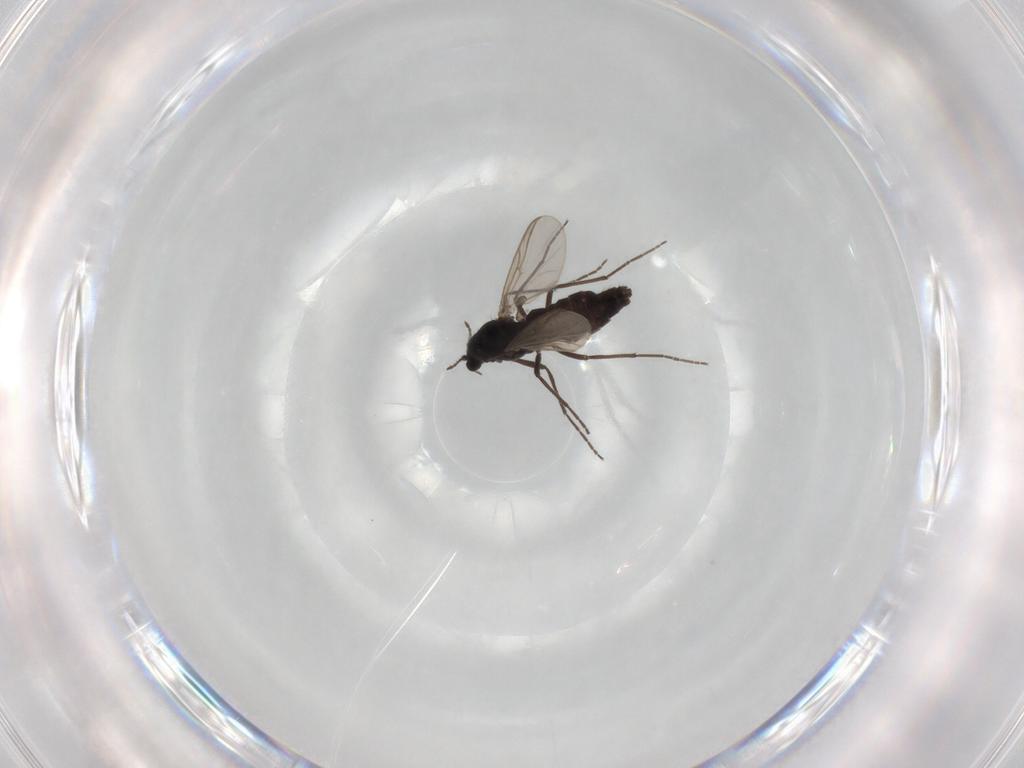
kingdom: Animalia
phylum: Arthropoda
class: Insecta
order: Diptera
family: Chironomidae
